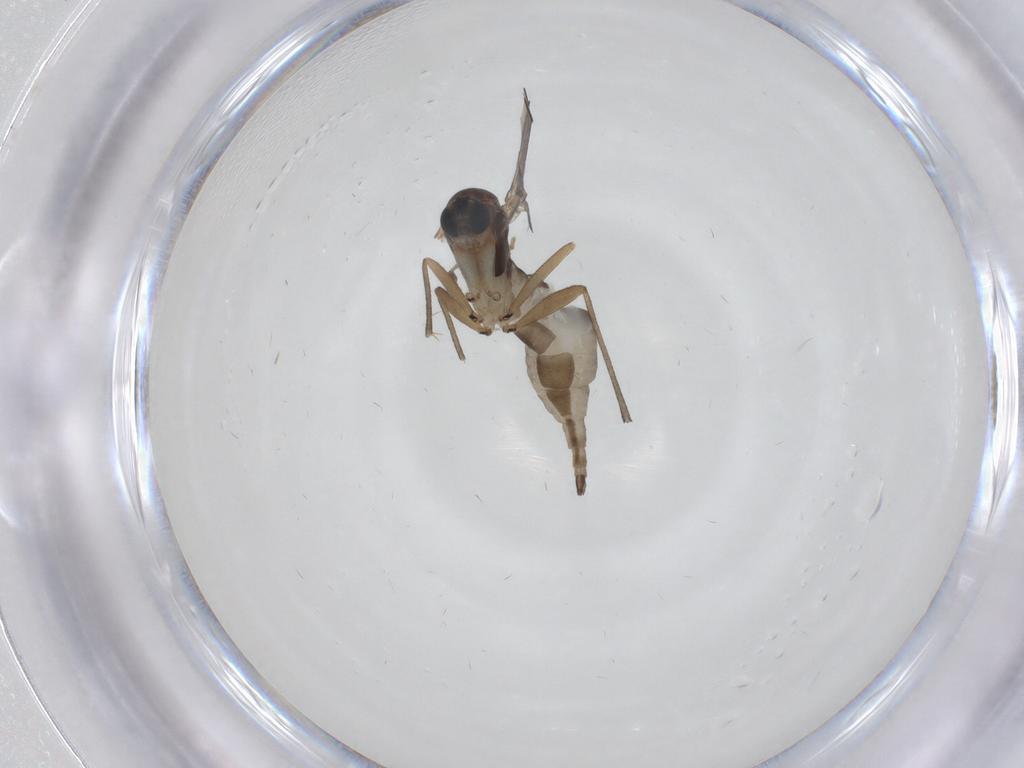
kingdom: Animalia
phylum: Arthropoda
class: Insecta
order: Diptera
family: Sciaridae
